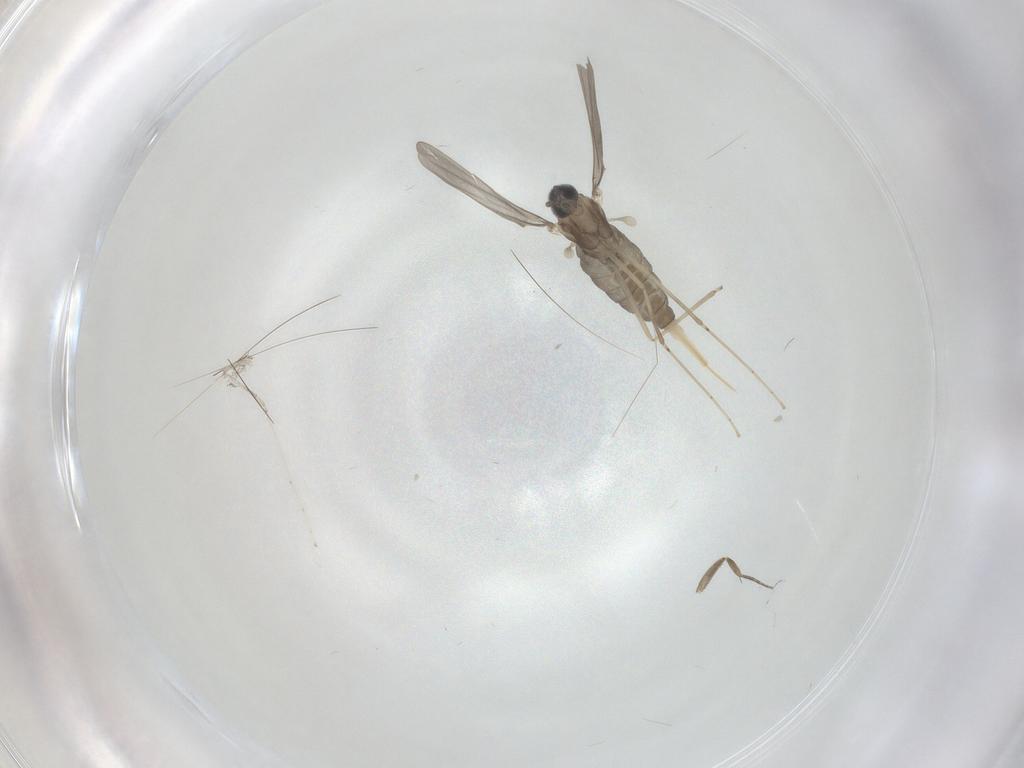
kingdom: Animalia
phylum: Arthropoda
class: Insecta
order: Diptera
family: Cecidomyiidae
